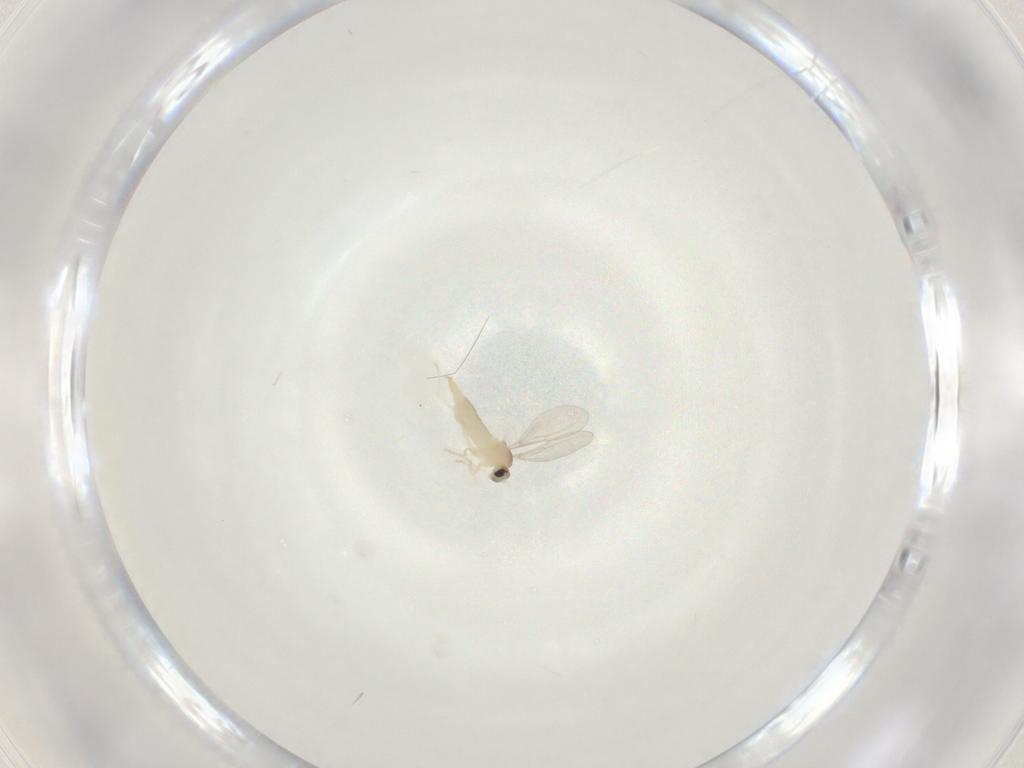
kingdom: Animalia
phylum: Arthropoda
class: Insecta
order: Diptera
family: Cecidomyiidae
